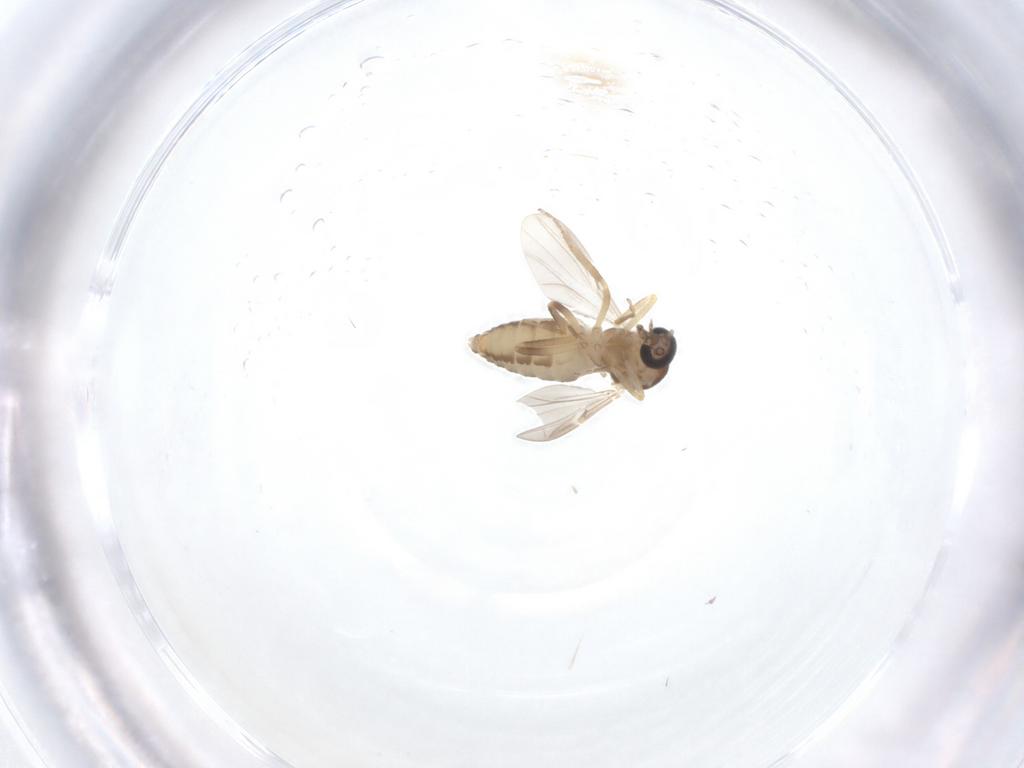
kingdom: Animalia
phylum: Arthropoda
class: Insecta
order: Diptera
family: Ceratopogonidae
